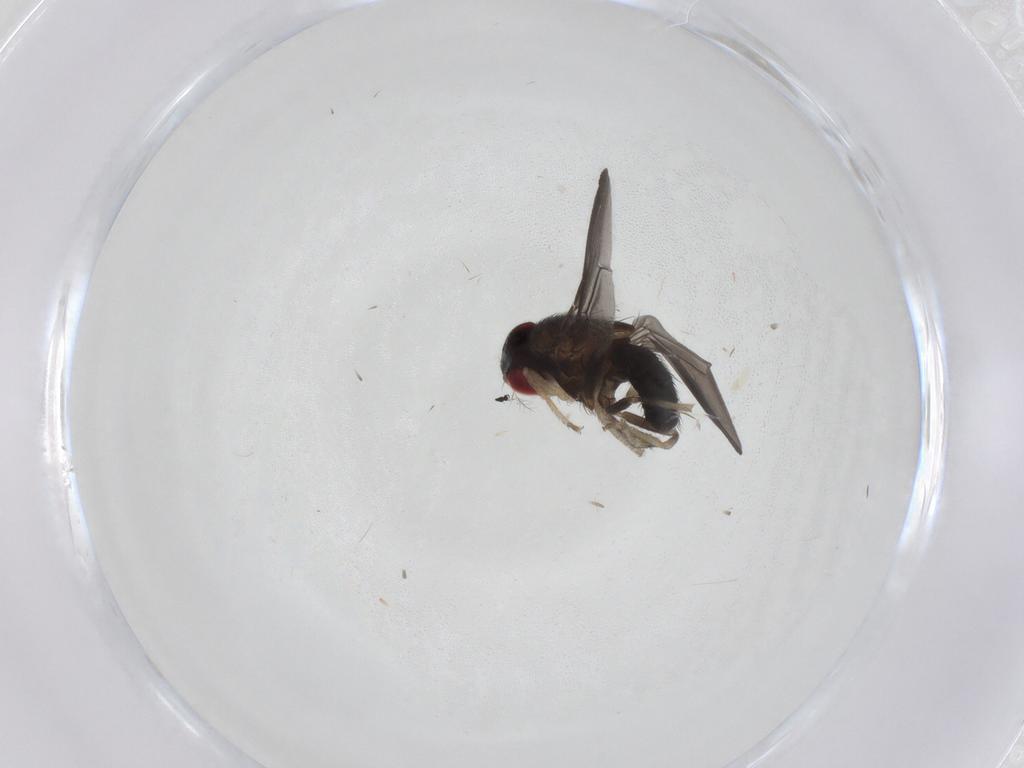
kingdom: Animalia
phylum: Arthropoda
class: Insecta
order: Diptera
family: Drosophilidae
